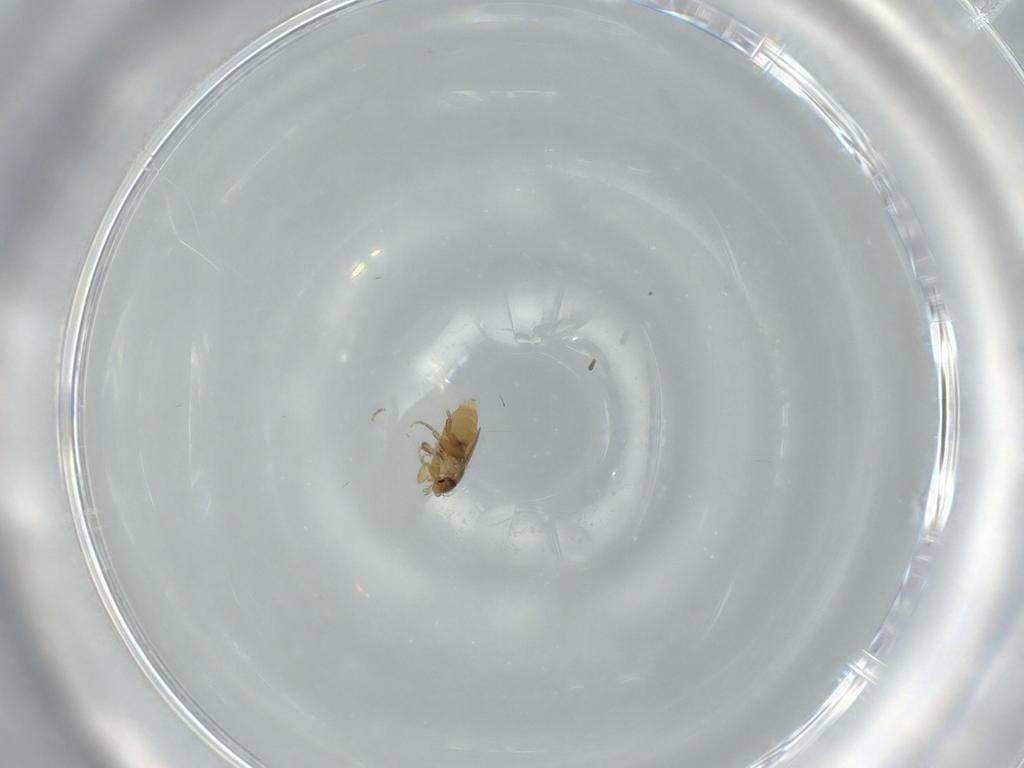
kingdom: Animalia
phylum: Arthropoda
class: Insecta
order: Diptera
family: Phoridae
